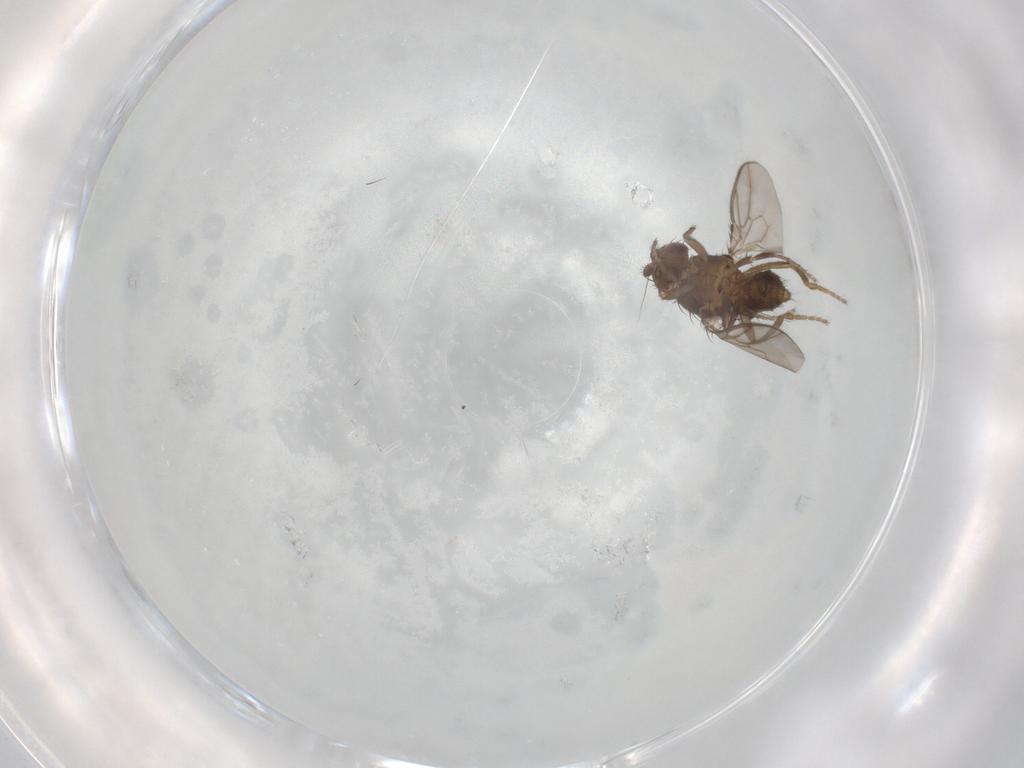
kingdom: Animalia
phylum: Arthropoda
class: Insecta
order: Diptera
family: Sphaeroceridae
